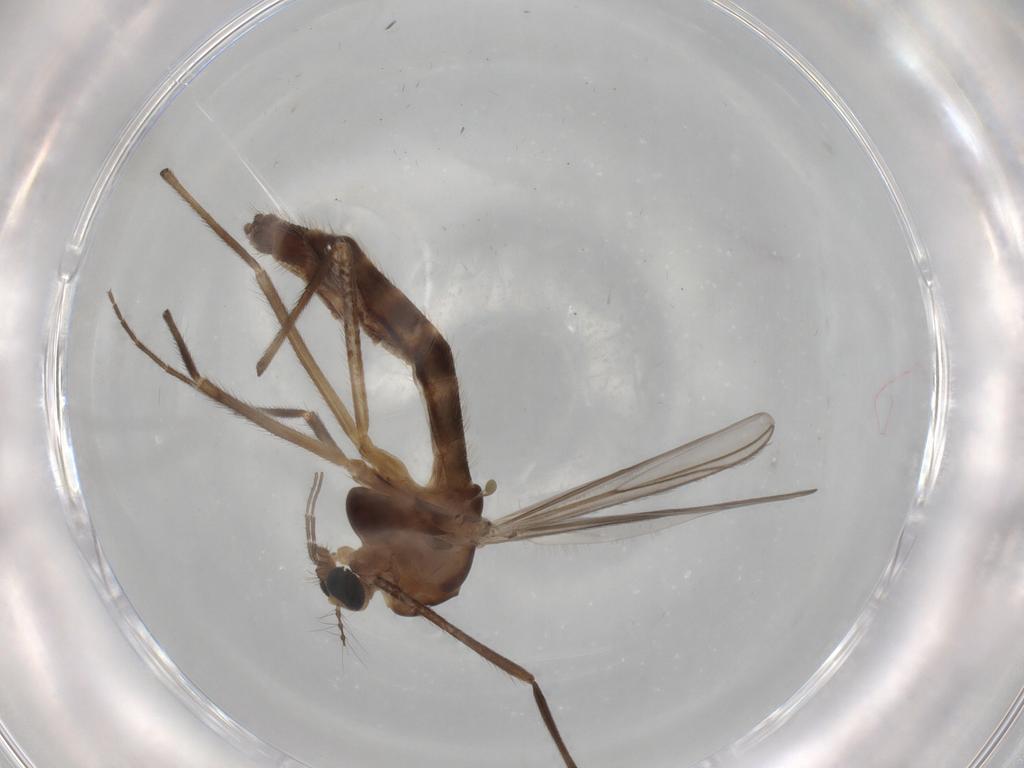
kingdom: Animalia
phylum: Arthropoda
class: Insecta
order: Diptera
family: Chironomidae
